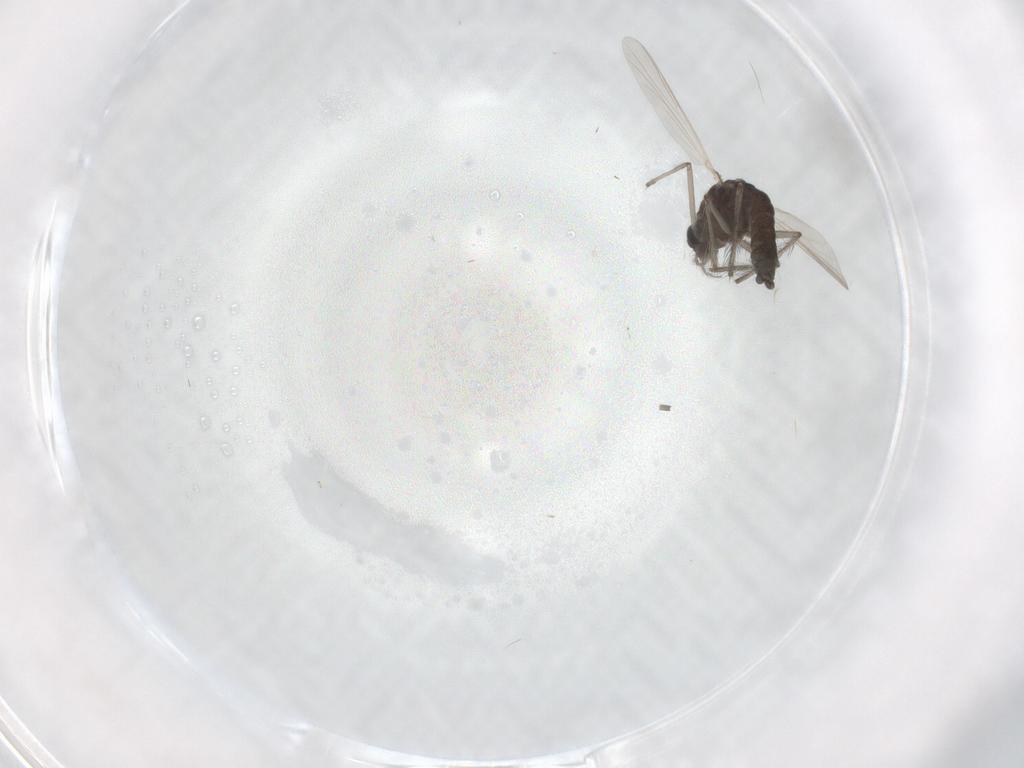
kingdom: Animalia
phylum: Arthropoda
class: Insecta
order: Diptera
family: Chironomidae
